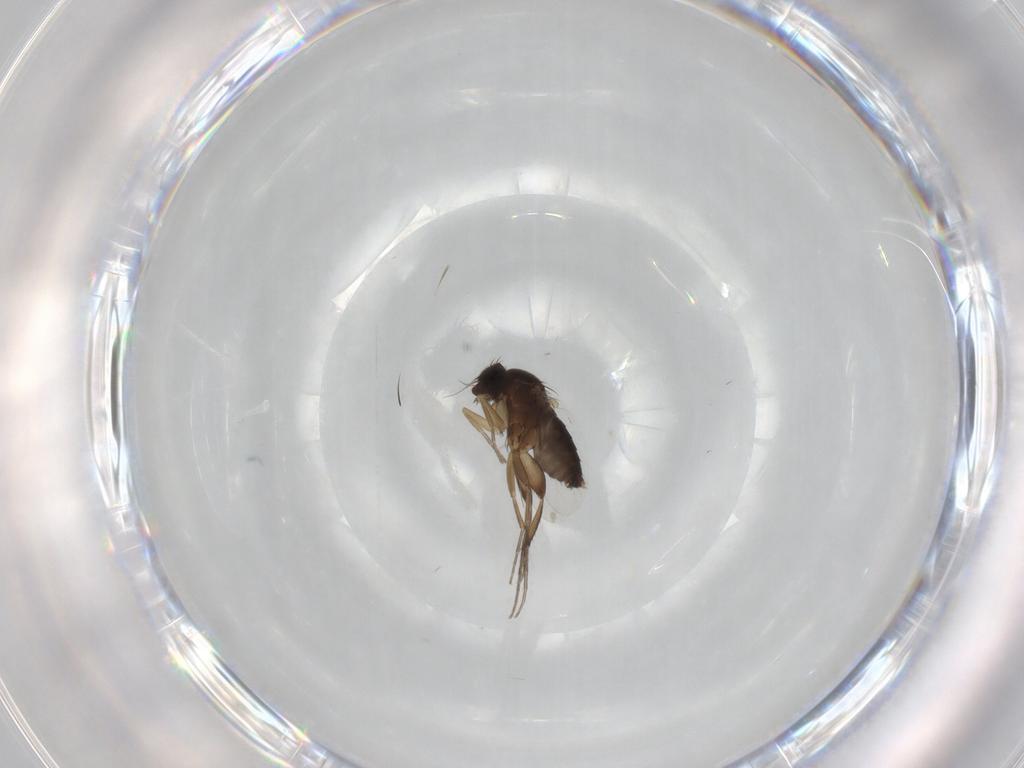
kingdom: Animalia
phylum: Arthropoda
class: Insecta
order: Diptera
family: Phoridae
